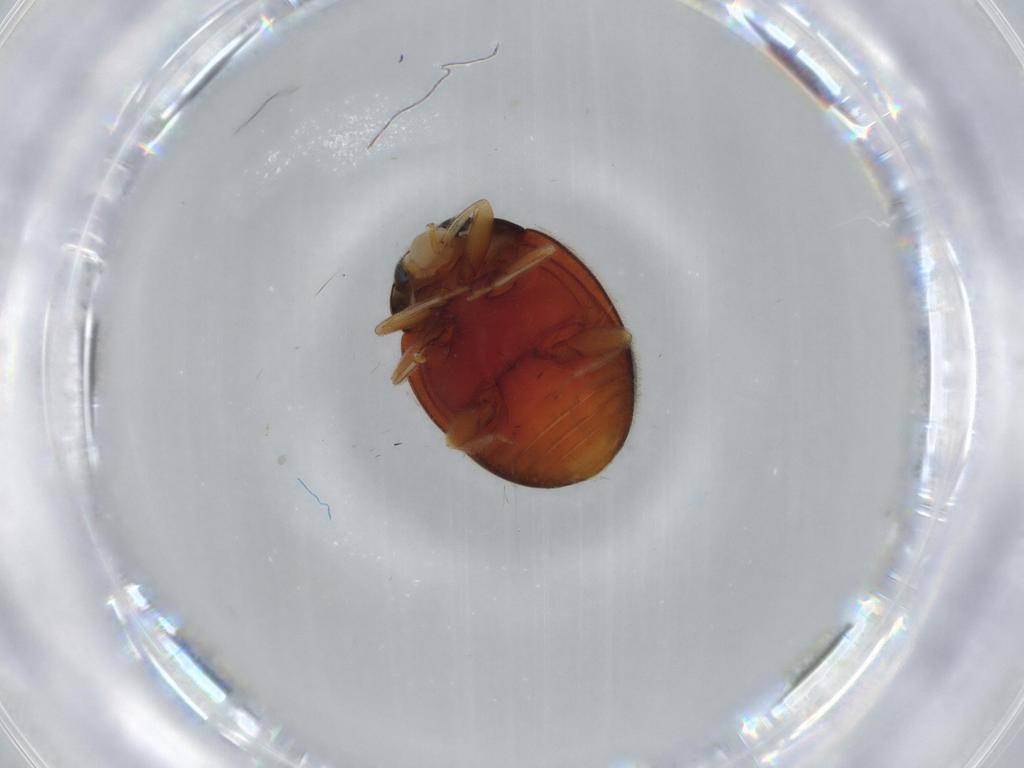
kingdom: Animalia
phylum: Arthropoda
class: Insecta
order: Coleoptera
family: Coccinellidae
